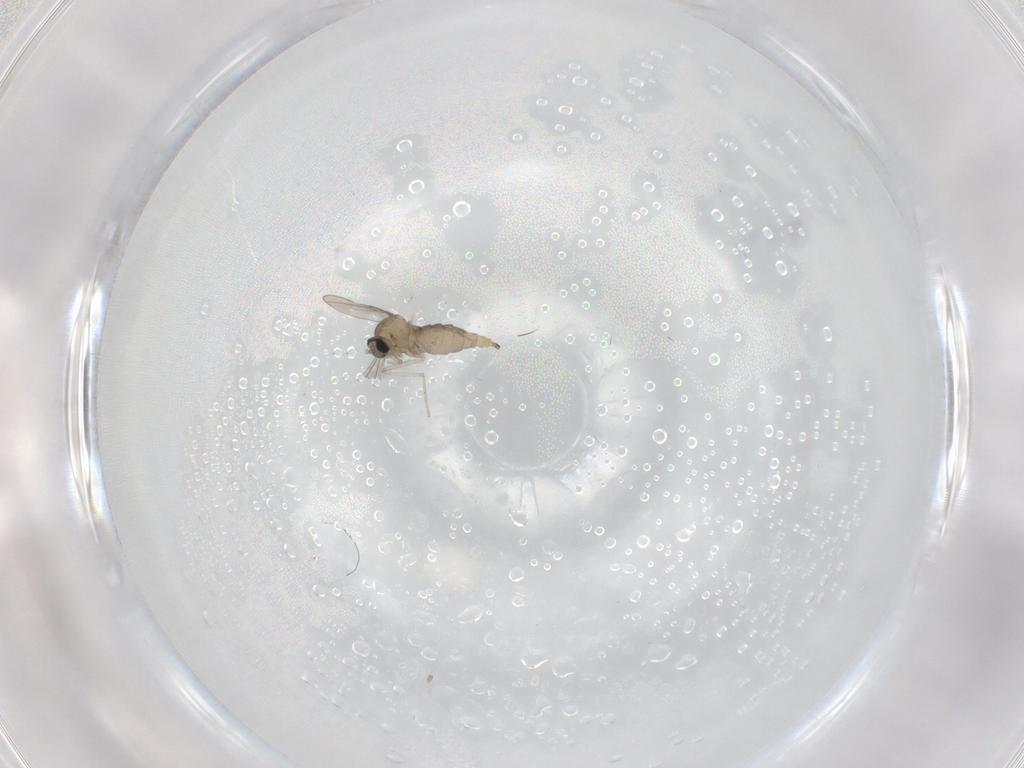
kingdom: Animalia
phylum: Arthropoda
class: Insecta
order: Diptera
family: Cecidomyiidae
